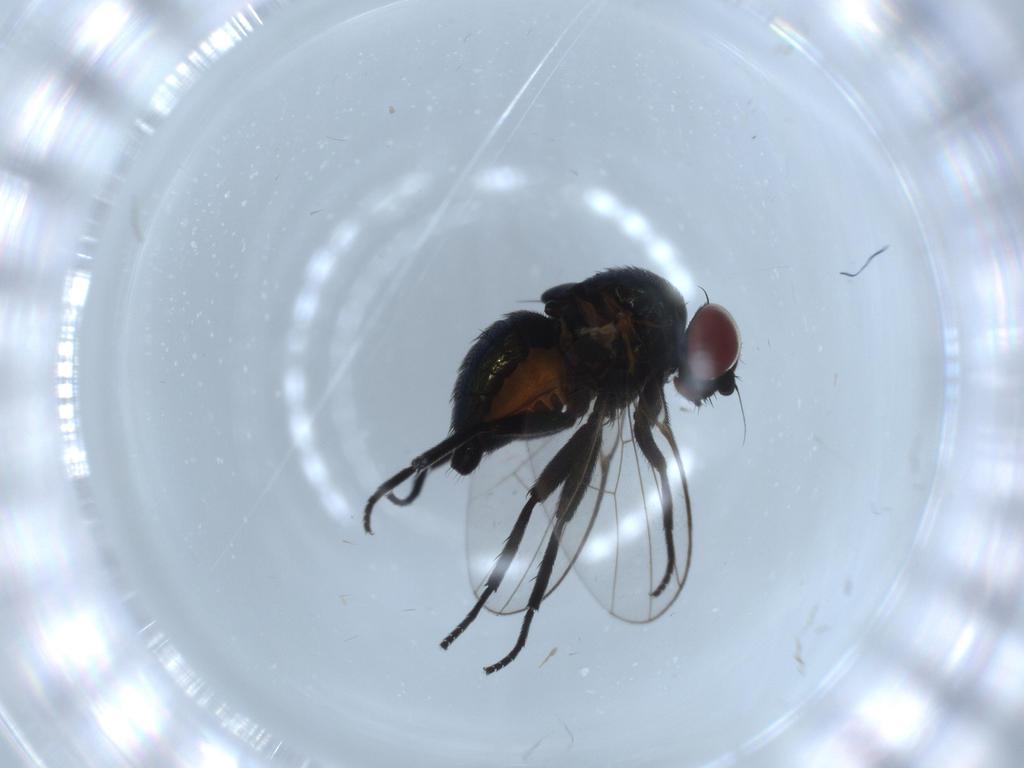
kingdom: Animalia
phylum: Arthropoda
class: Insecta
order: Diptera
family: Agromyzidae
